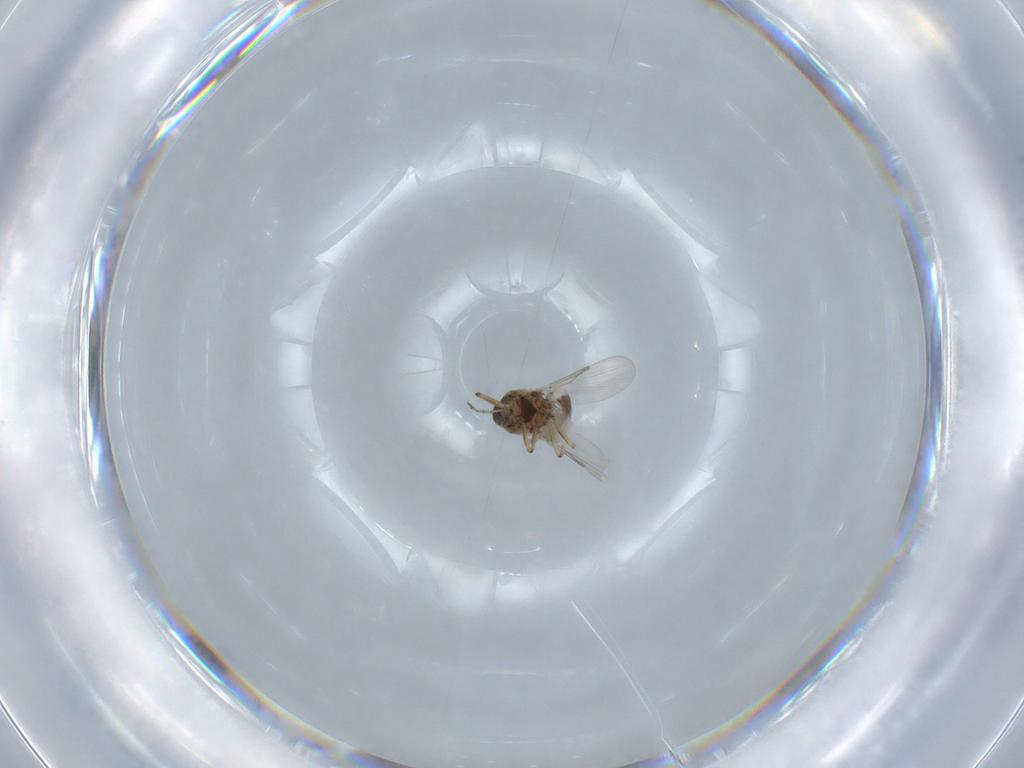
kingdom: Animalia
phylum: Arthropoda
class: Insecta
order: Diptera
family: Ceratopogonidae
